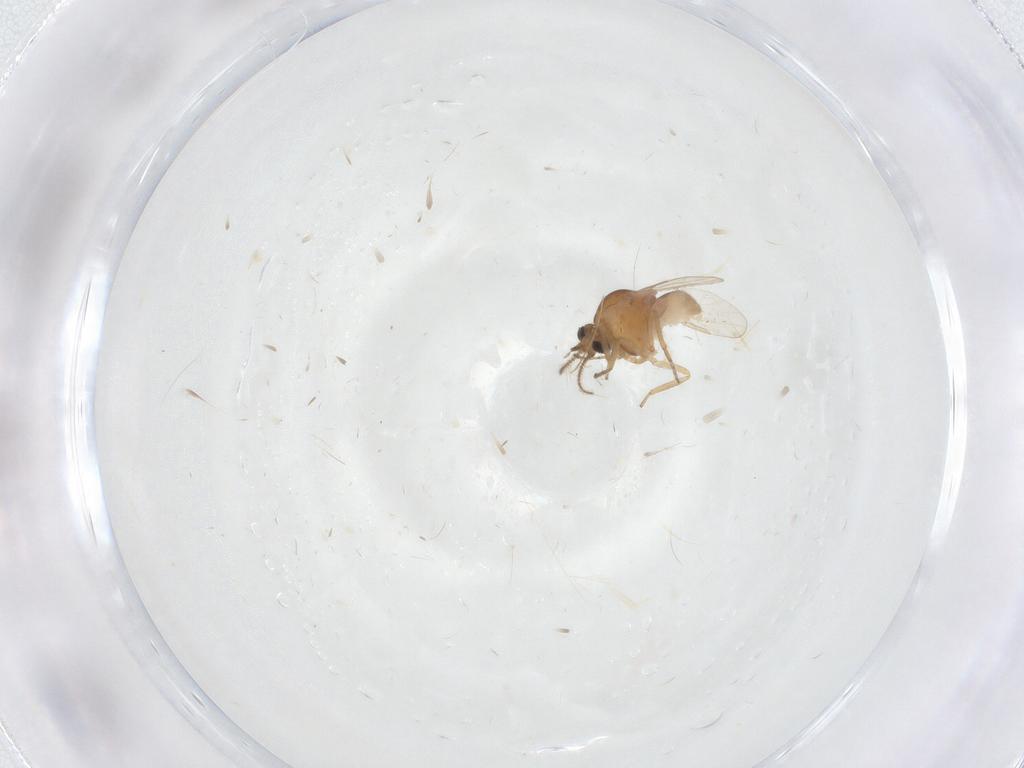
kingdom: Animalia
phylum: Arthropoda
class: Insecta
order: Diptera
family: Ceratopogonidae
